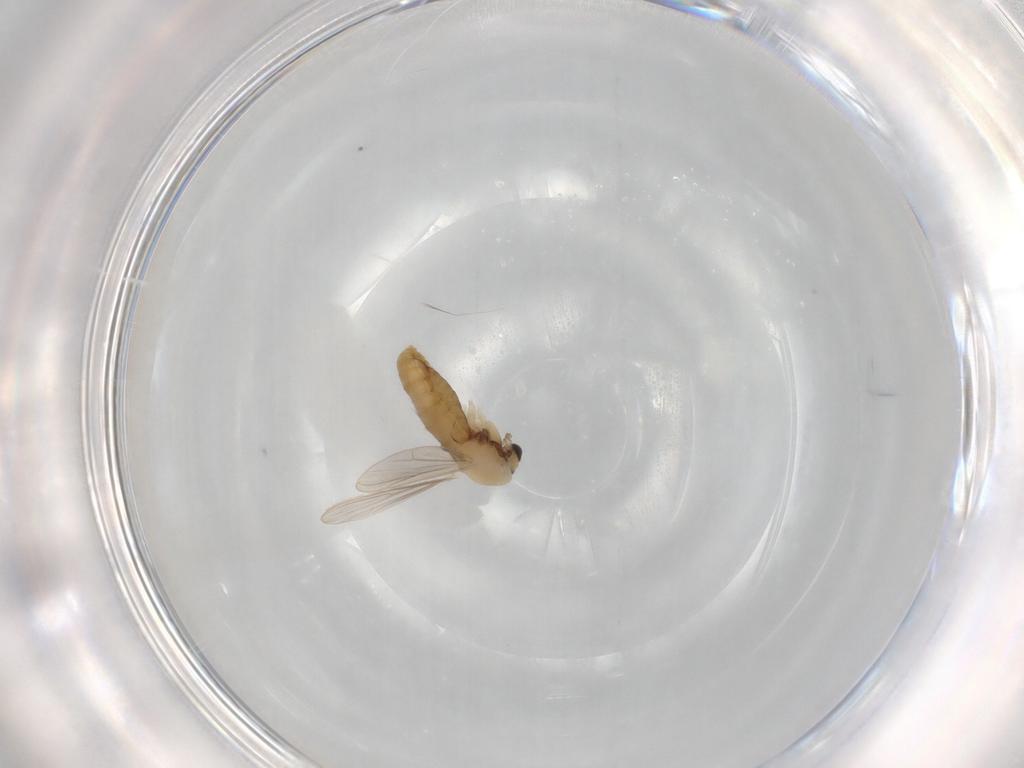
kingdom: Animalia
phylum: Arthropoda
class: Insecta
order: Diptera
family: Chironomidae
